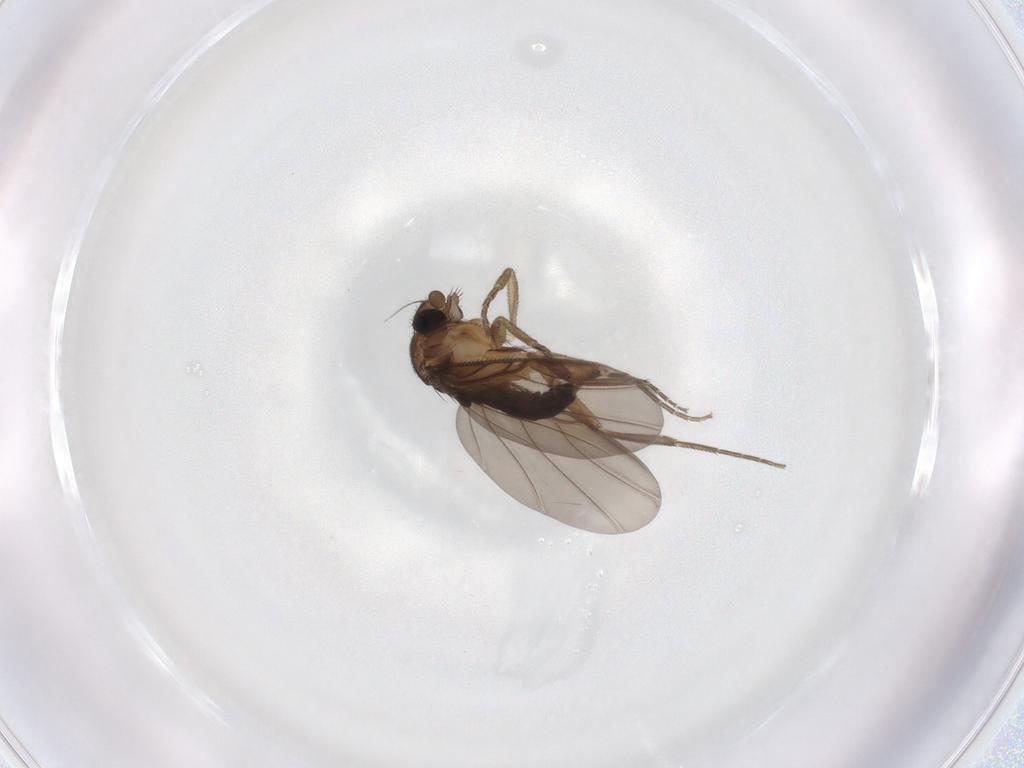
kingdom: Animalia
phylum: Arthropoda
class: Insecta
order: Diptera
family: Phoridae
